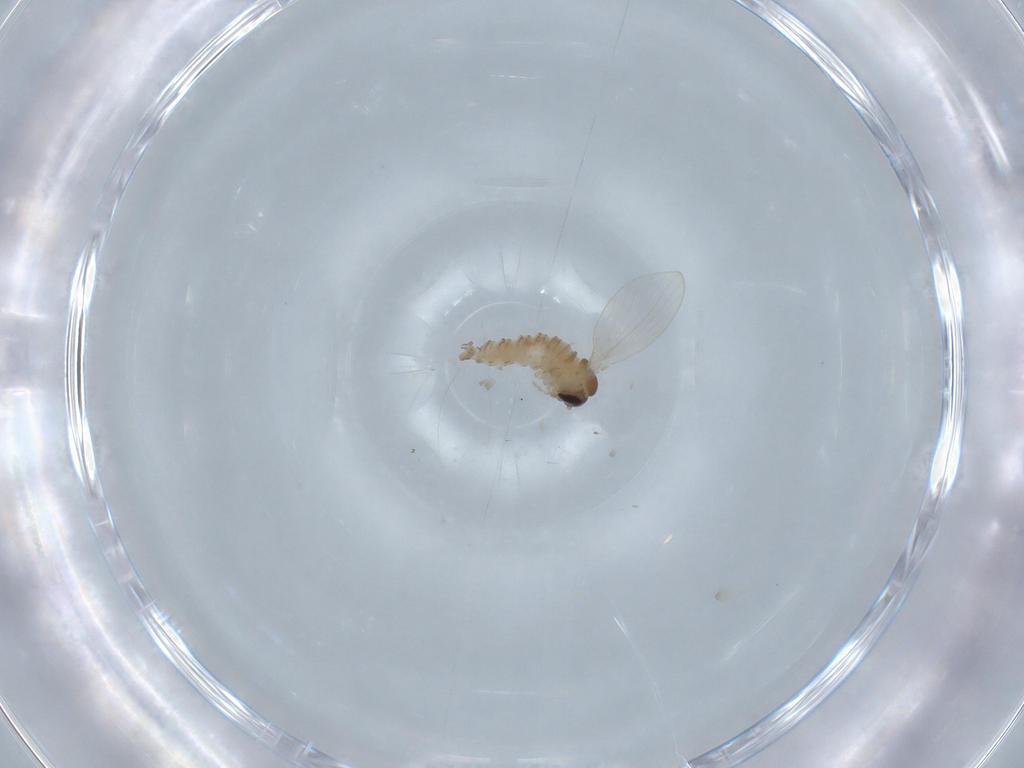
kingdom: Animalia
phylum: Arthropoda
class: Insecta
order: Diptera
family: Psychodidae
